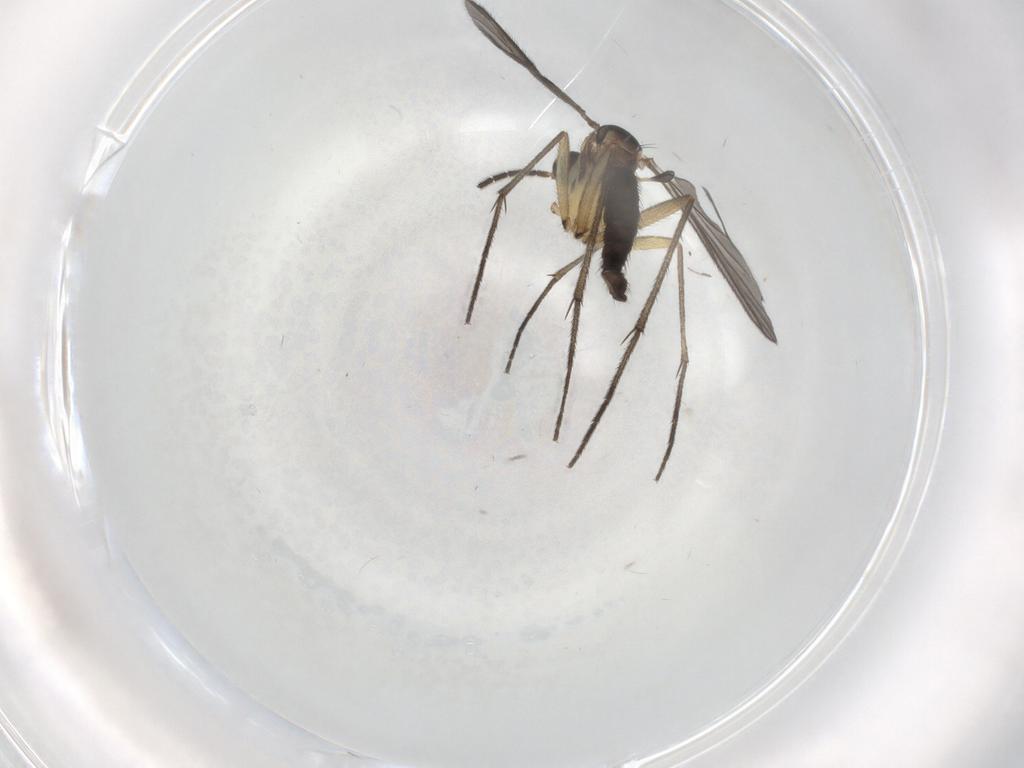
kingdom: Animalia
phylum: Arthropoda
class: Insecta
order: Diptera
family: Sciaridae
